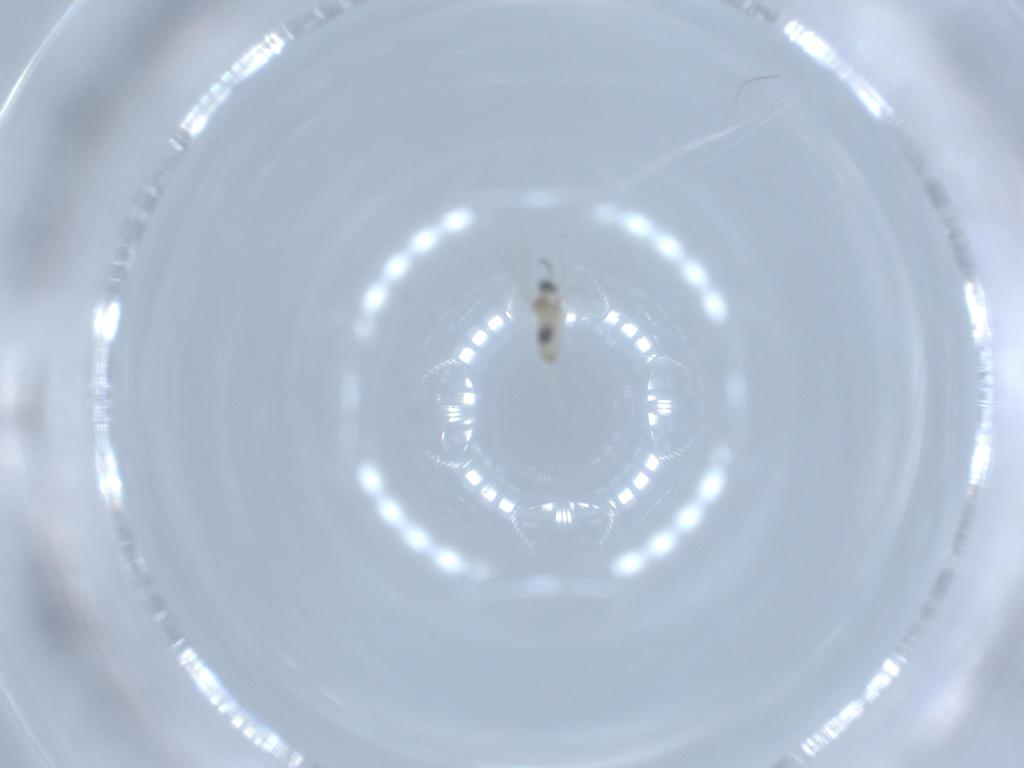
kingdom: Animalia
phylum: Arthropoda
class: Insecta
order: Diptera
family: Cecidomyiidae
